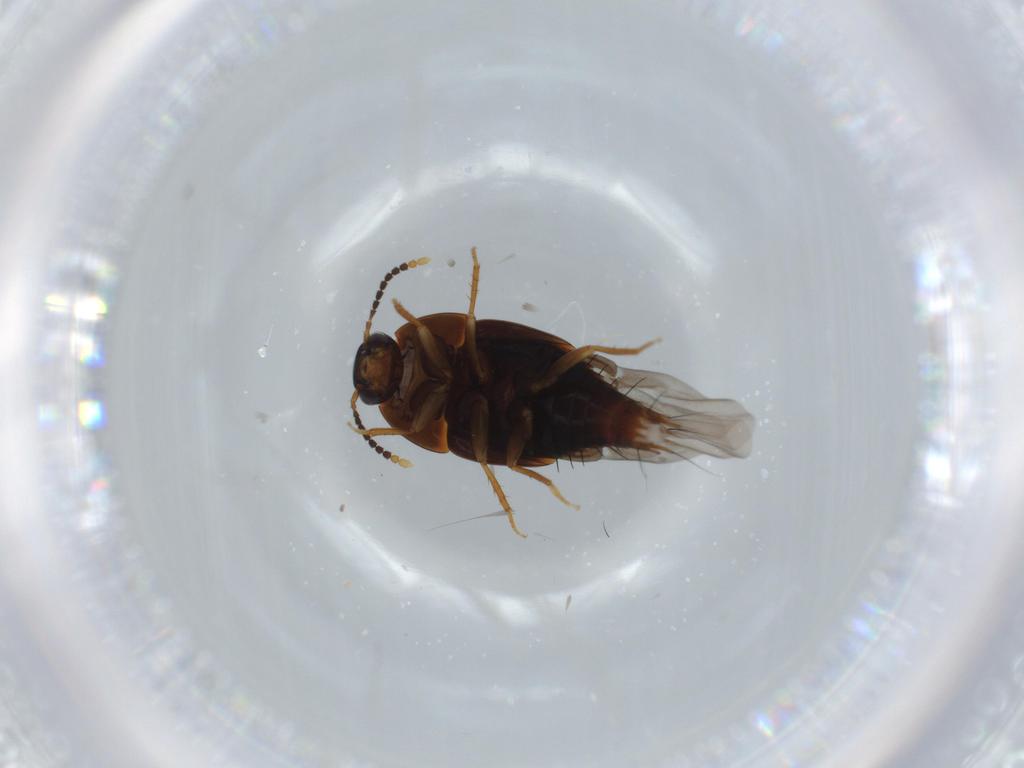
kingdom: Animalia
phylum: Arthropoda
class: Insecta
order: Coleoptera
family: Staphylinidae
